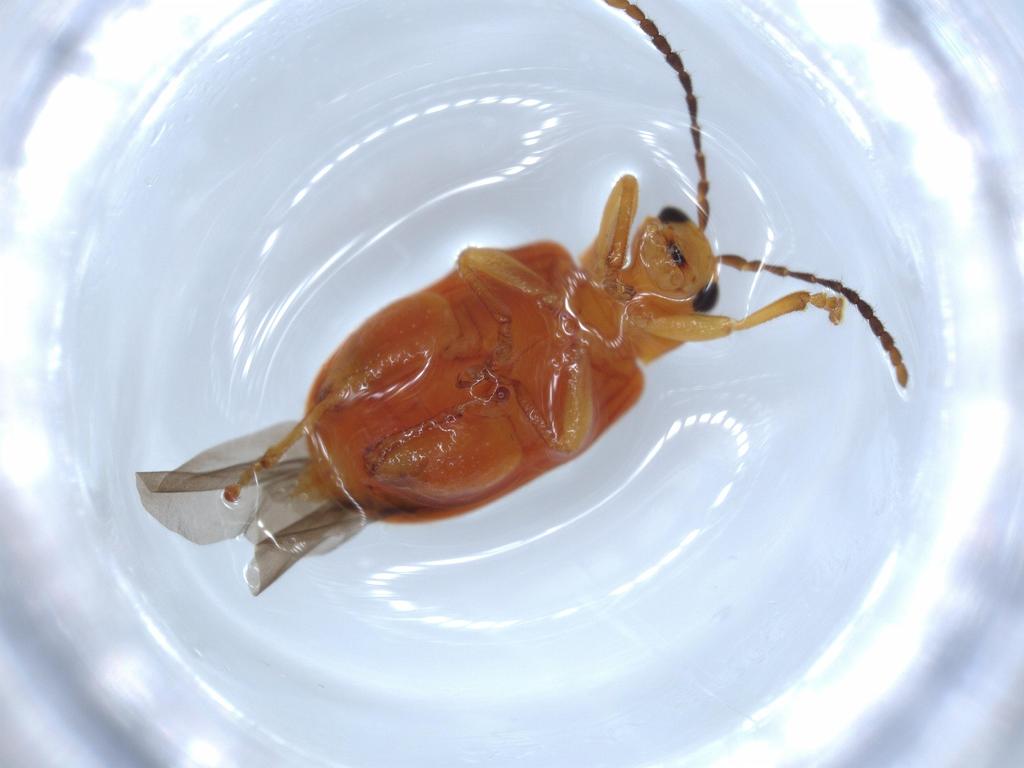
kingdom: Animalia
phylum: Arthropoda
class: Insecta
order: Coleoptera
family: Chrysomelidae
